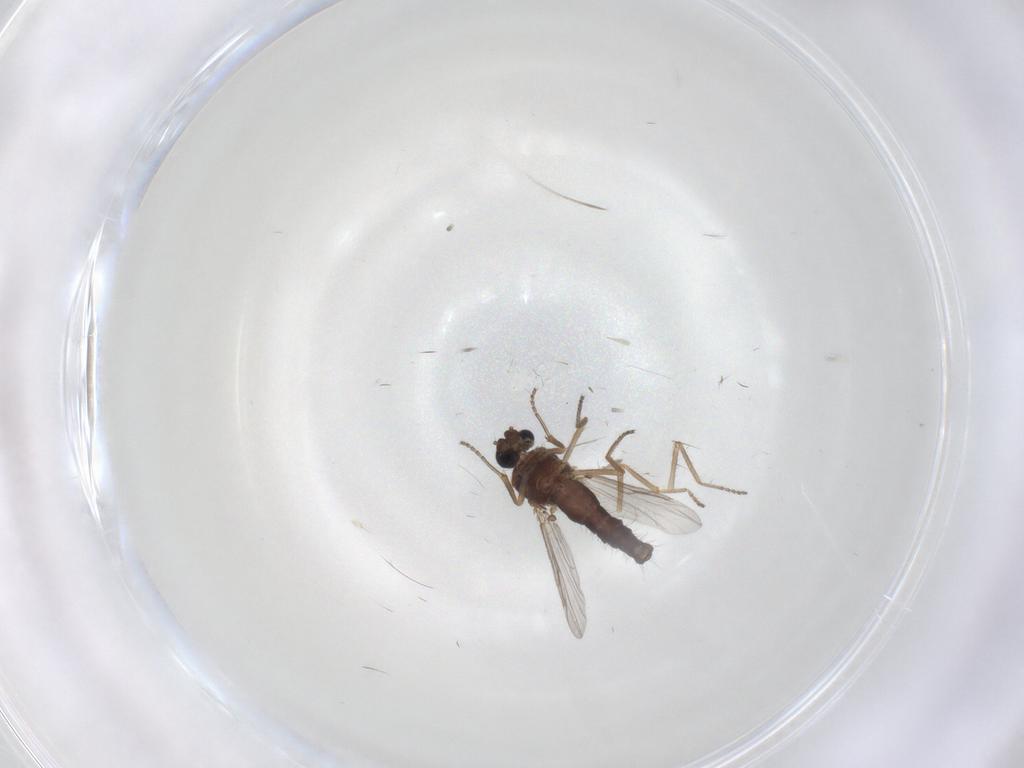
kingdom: Animalia
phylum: Arthropoda
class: Insecta
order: Diptera
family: Ceratopogonidae
